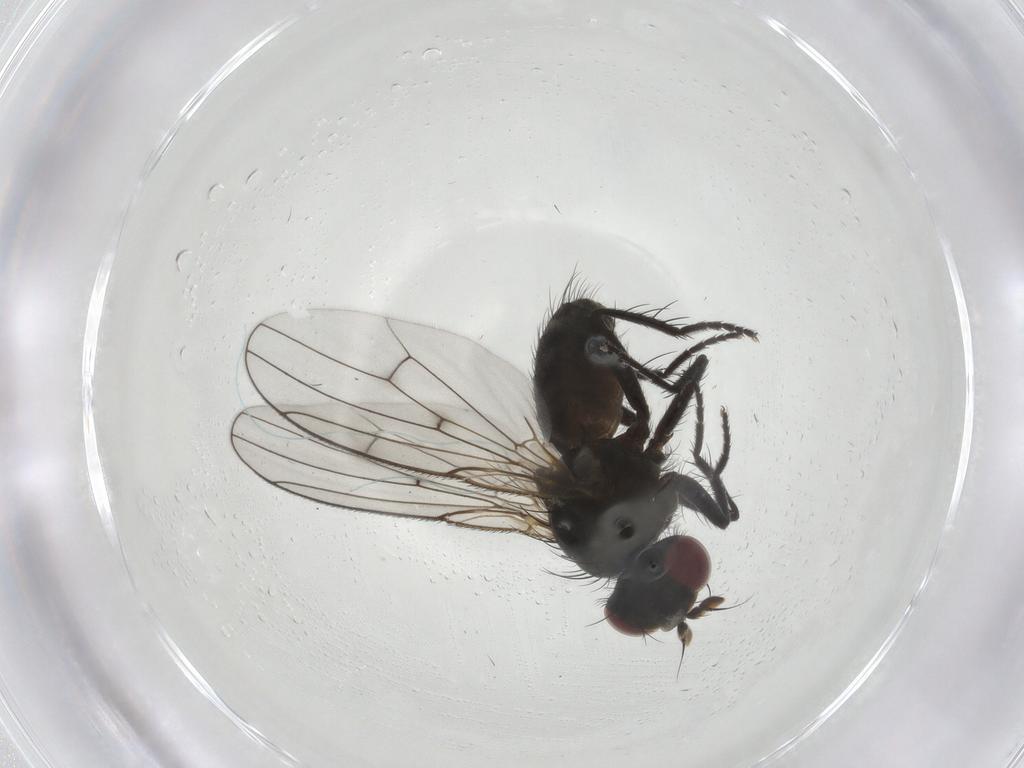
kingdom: Animalia
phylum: Arthropoda
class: Insecta
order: Diptera
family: Muscidae
